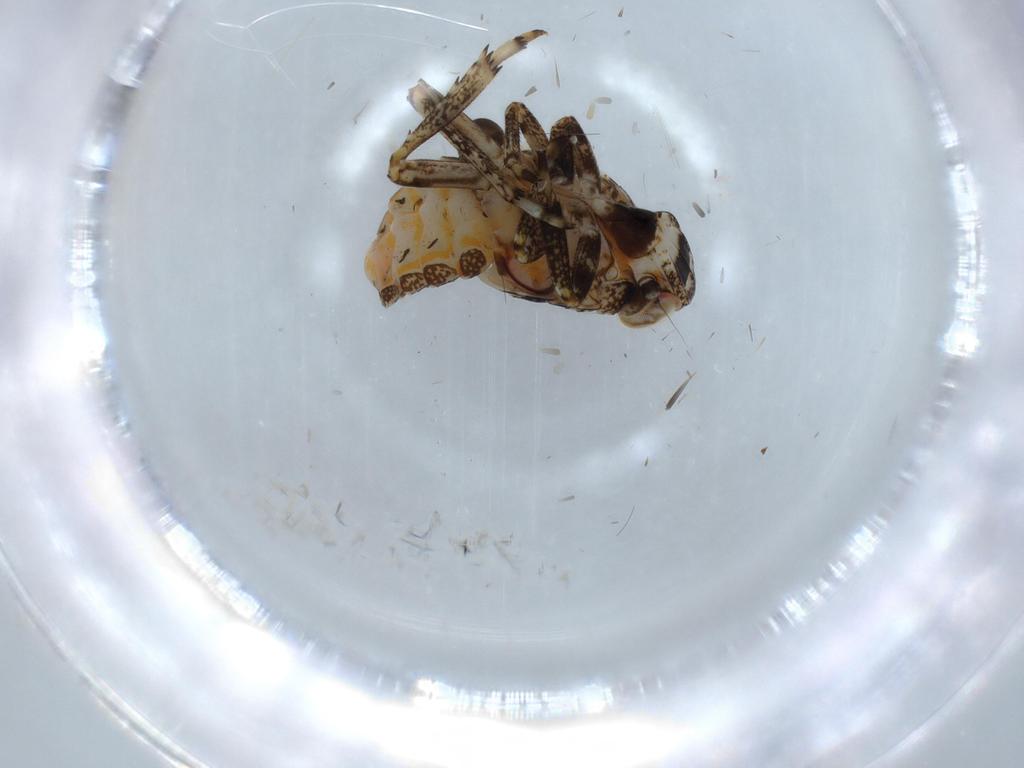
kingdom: Animalia
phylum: Arthropoda
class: Insecta
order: Hemiptera
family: Issidae
